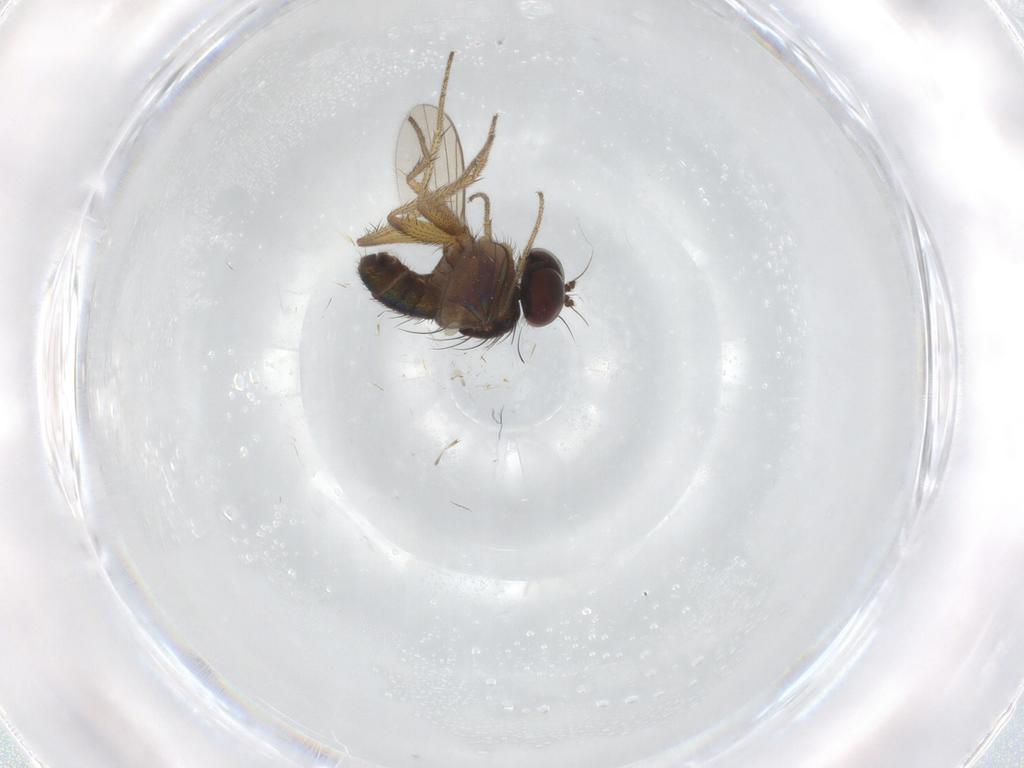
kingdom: Animalia
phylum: Arthropoda
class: Insecta
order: Diptera
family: Dolichopodidae
